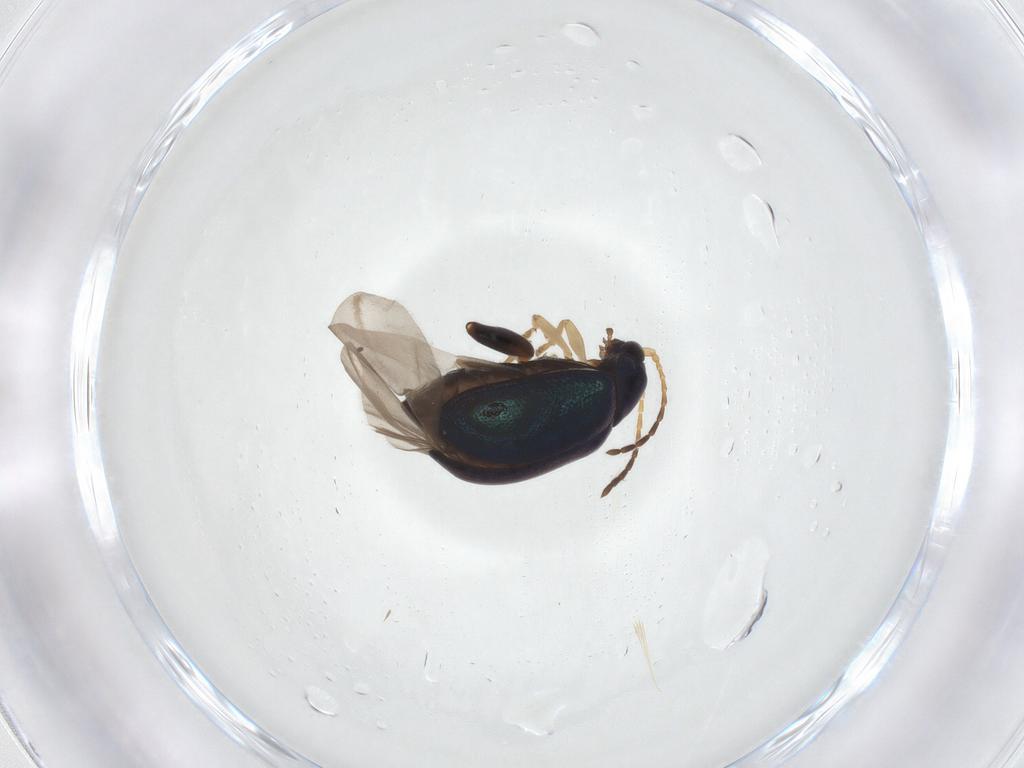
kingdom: Animalia
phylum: Arthropoda
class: Insecta
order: Coleoptera
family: Chrysomelidae
